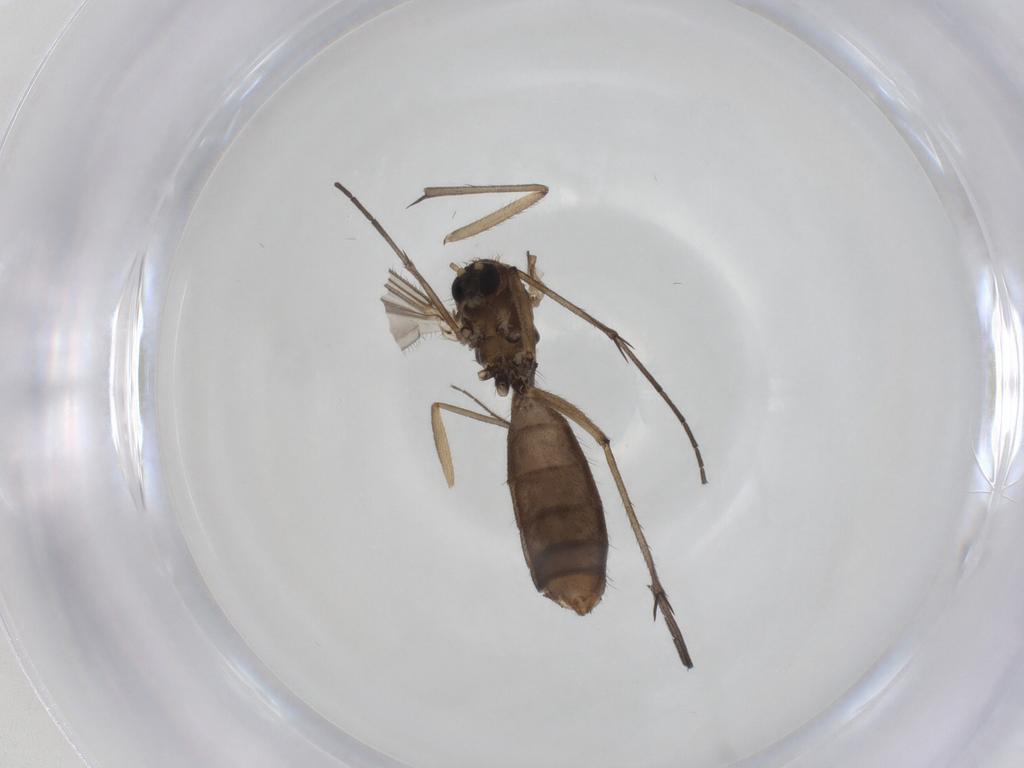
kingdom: Animalia
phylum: Arthropoda
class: Insecta
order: Diptera
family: Mycetophilidae
